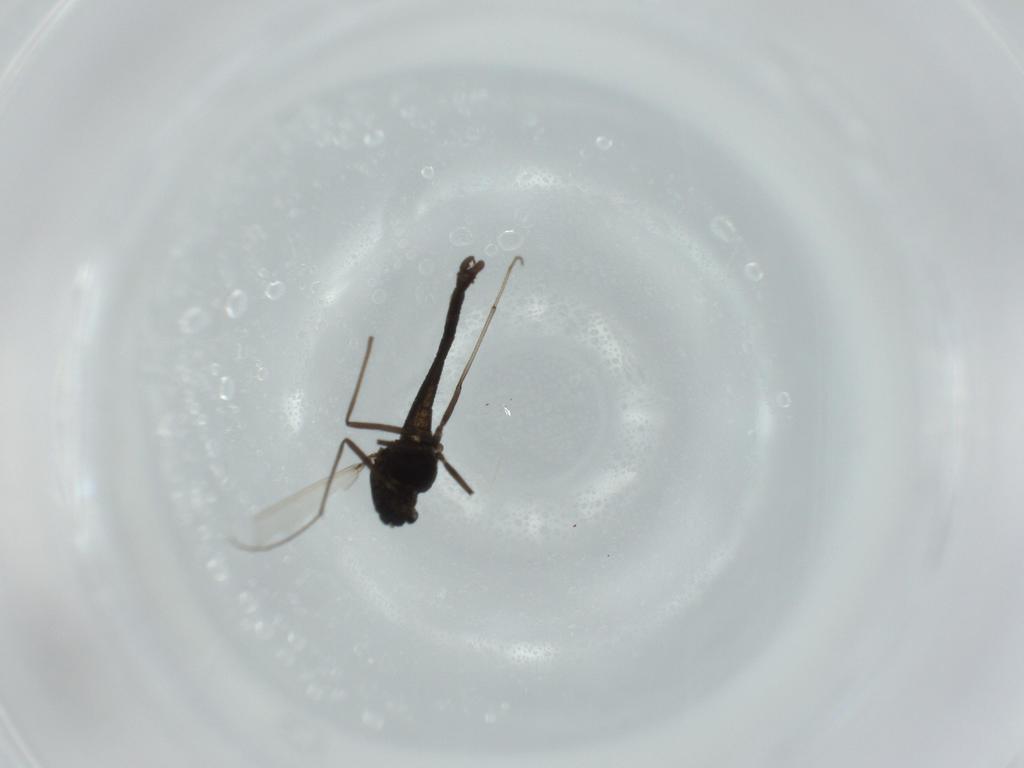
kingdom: Animalia
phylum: Arthropoda
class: Insecta
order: Diptera
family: Chironomidae
